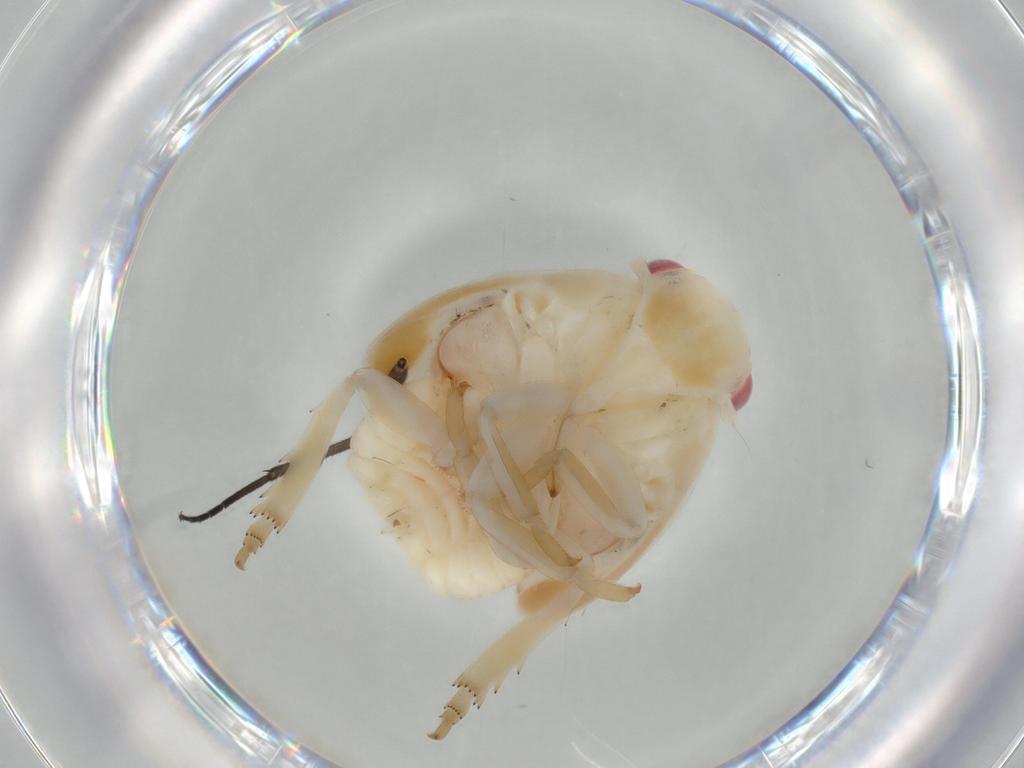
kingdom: Animalia
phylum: Arthropoda
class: Insecta
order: Hemiptera
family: Flatidae
